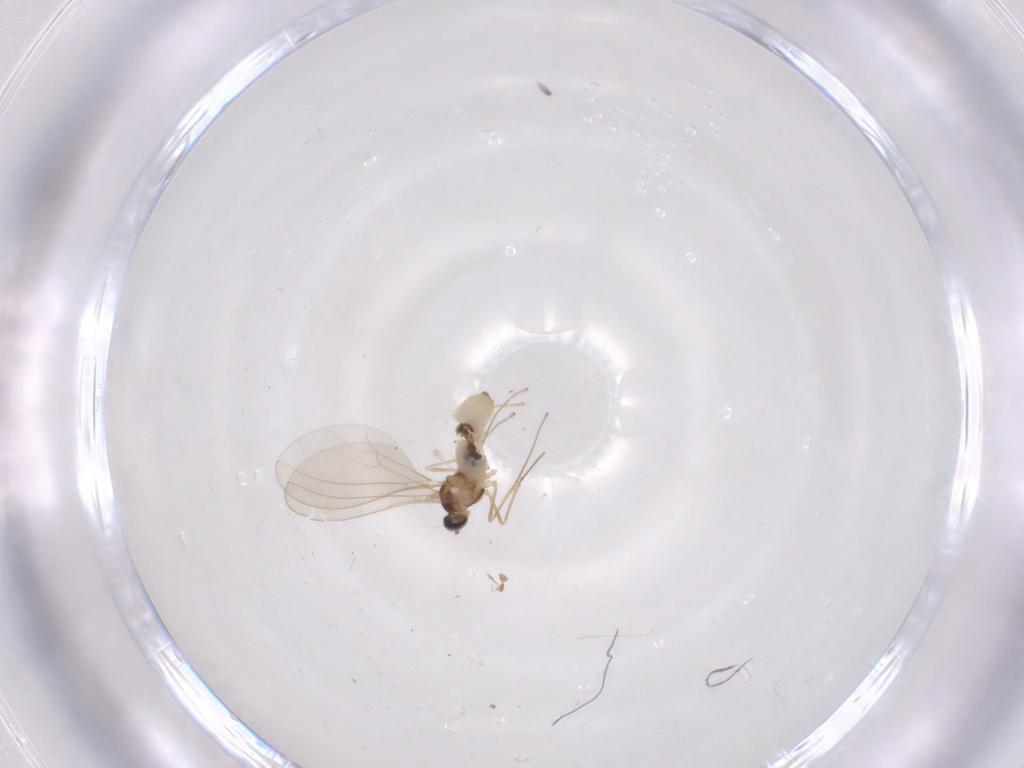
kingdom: Animalia
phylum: Arthropoda
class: Insecta
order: Diptera
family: Cecidomyiidae
